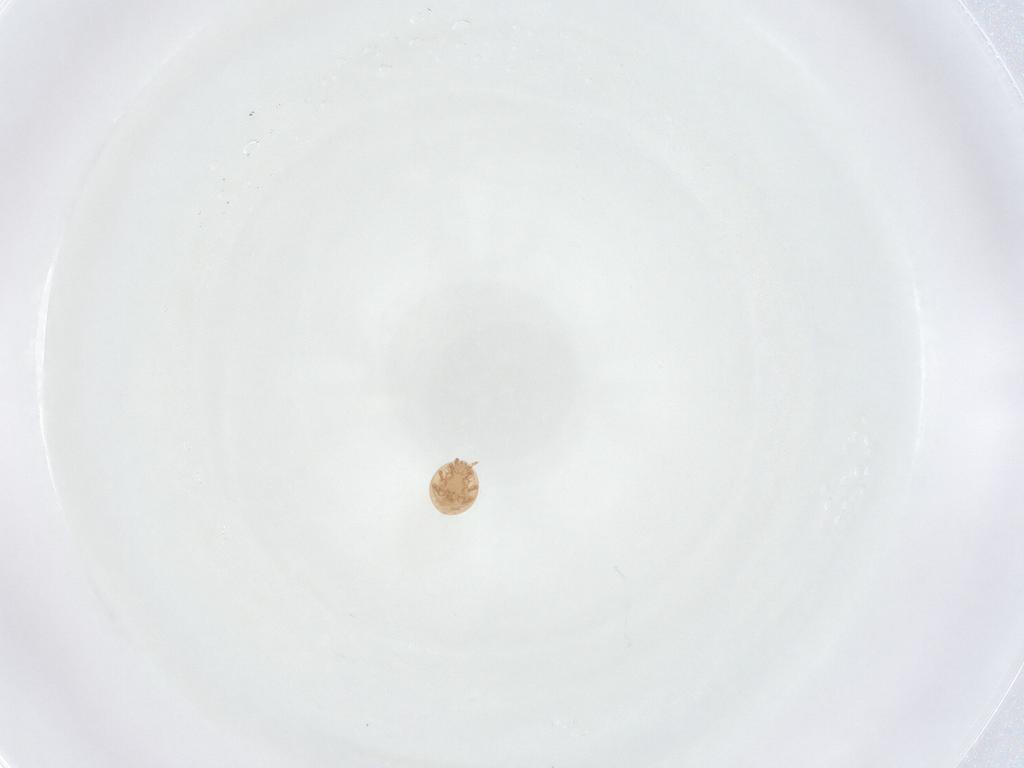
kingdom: Animalia
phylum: Arthropoda
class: Arachnida
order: Mesostigmata
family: Trematuridae
